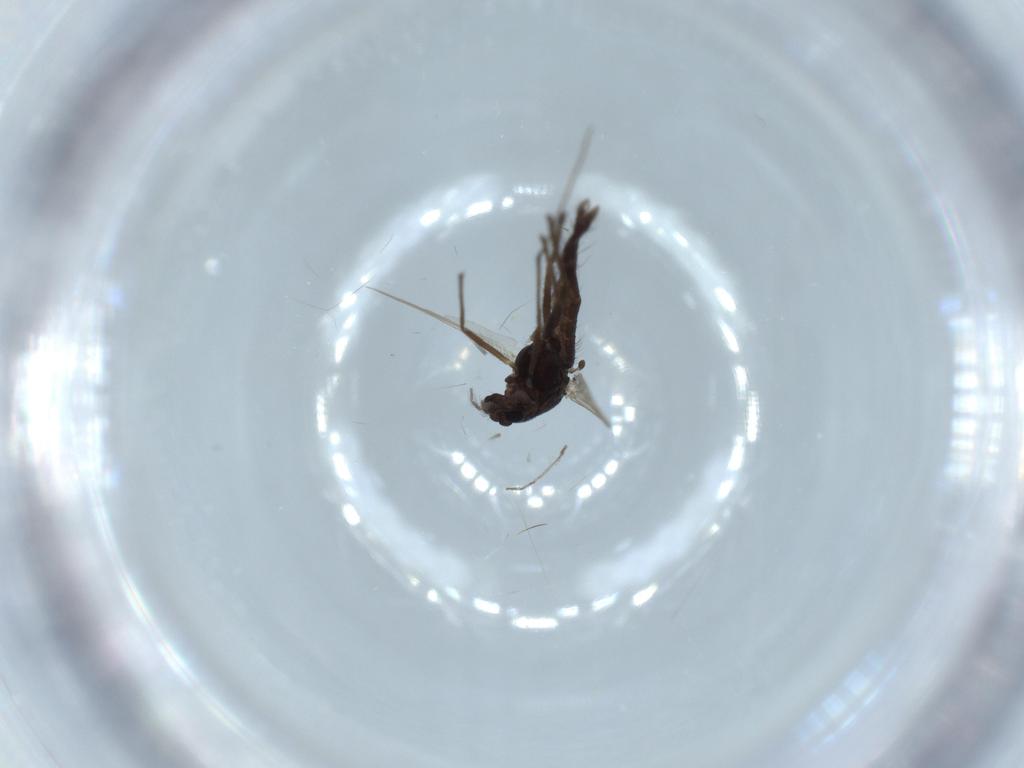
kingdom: Animalia
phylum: Arthropoda
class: Insecta
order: Diptera
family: Chironomidae
